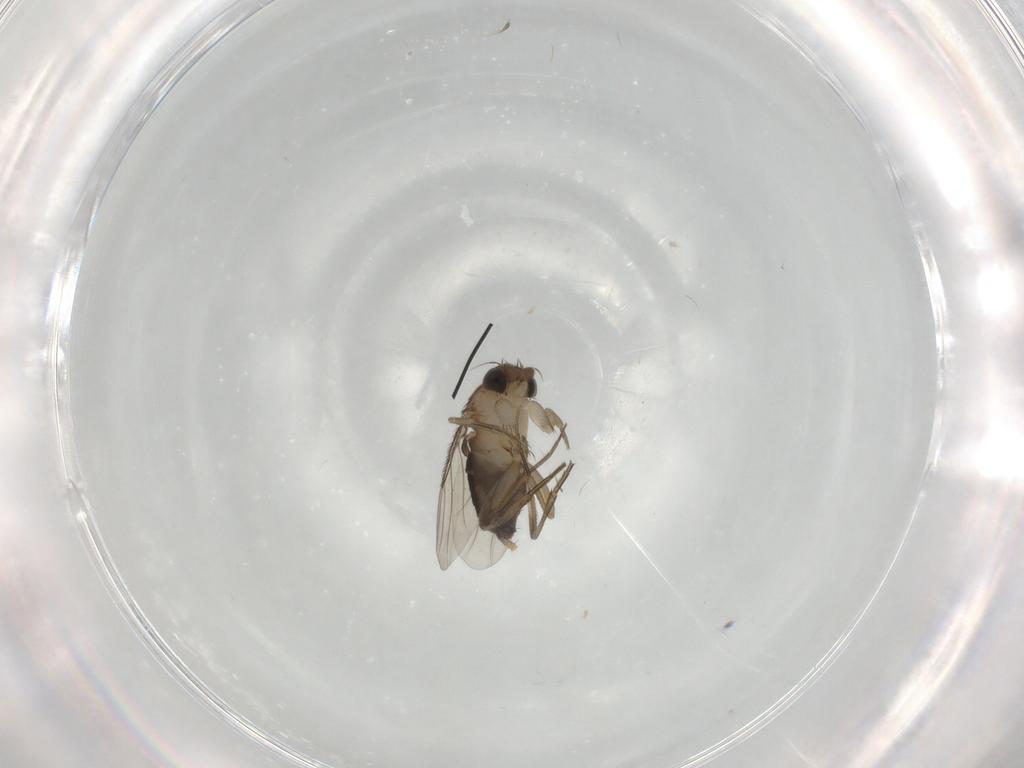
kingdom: Animalia
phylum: Arthropoda
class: Insecta
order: Diptera
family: Phoridae
